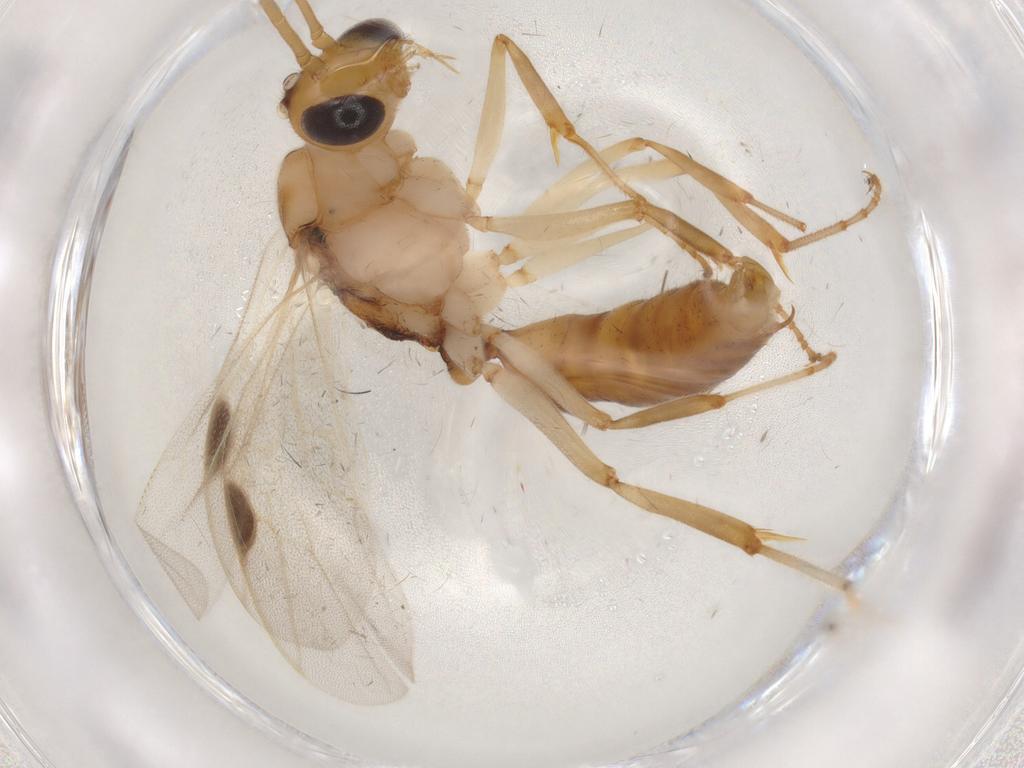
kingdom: Animalia
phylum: Arthropoda
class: Insecta
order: Hymenoptera
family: Formicidae
